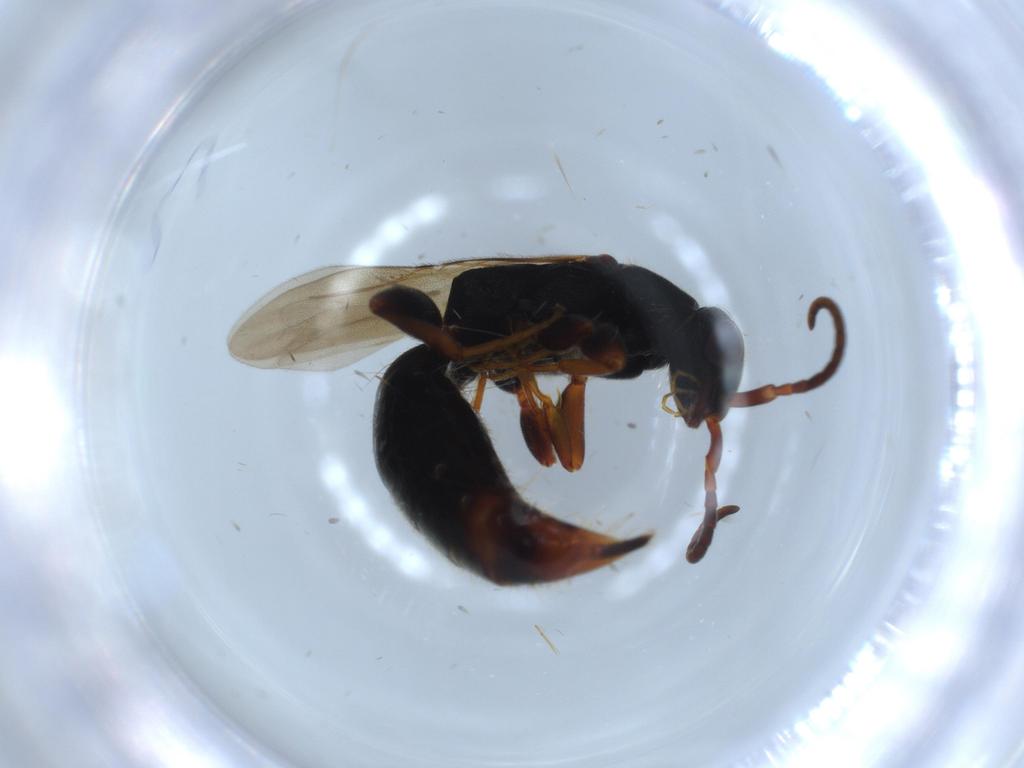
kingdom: Animalia
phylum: Arthropoda
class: Insecta
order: Hymenoptera
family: Bethylidae
